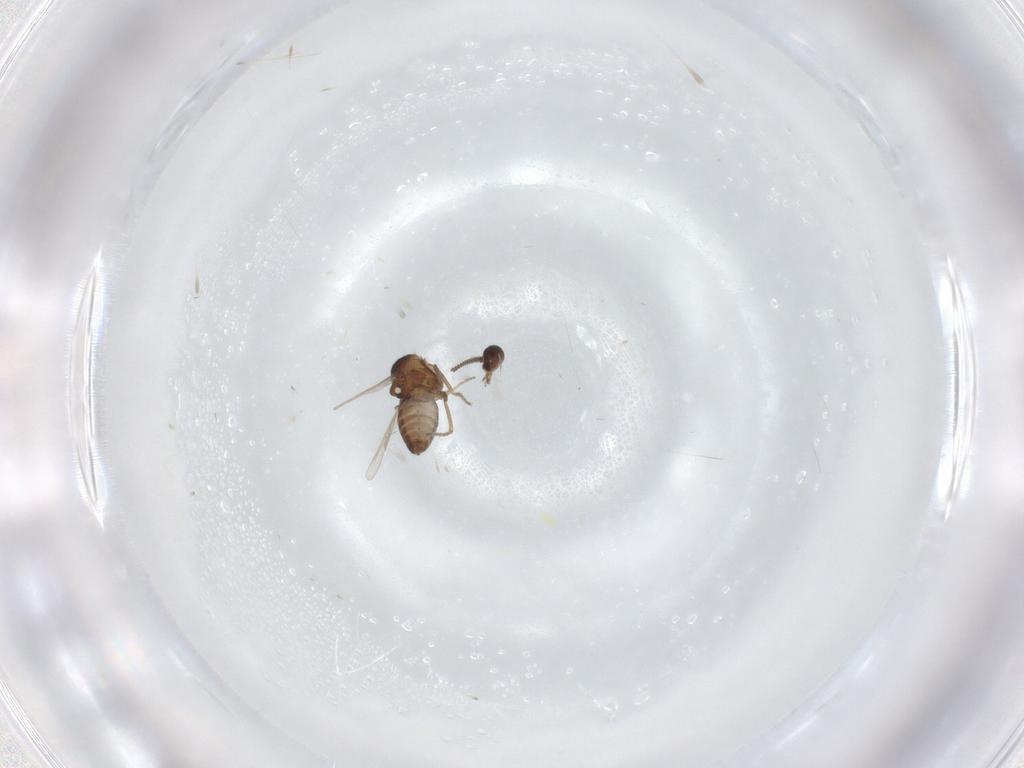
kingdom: Animalia
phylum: Arthropoda
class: Insecta
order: Diptera
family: Ceratopogonidae
